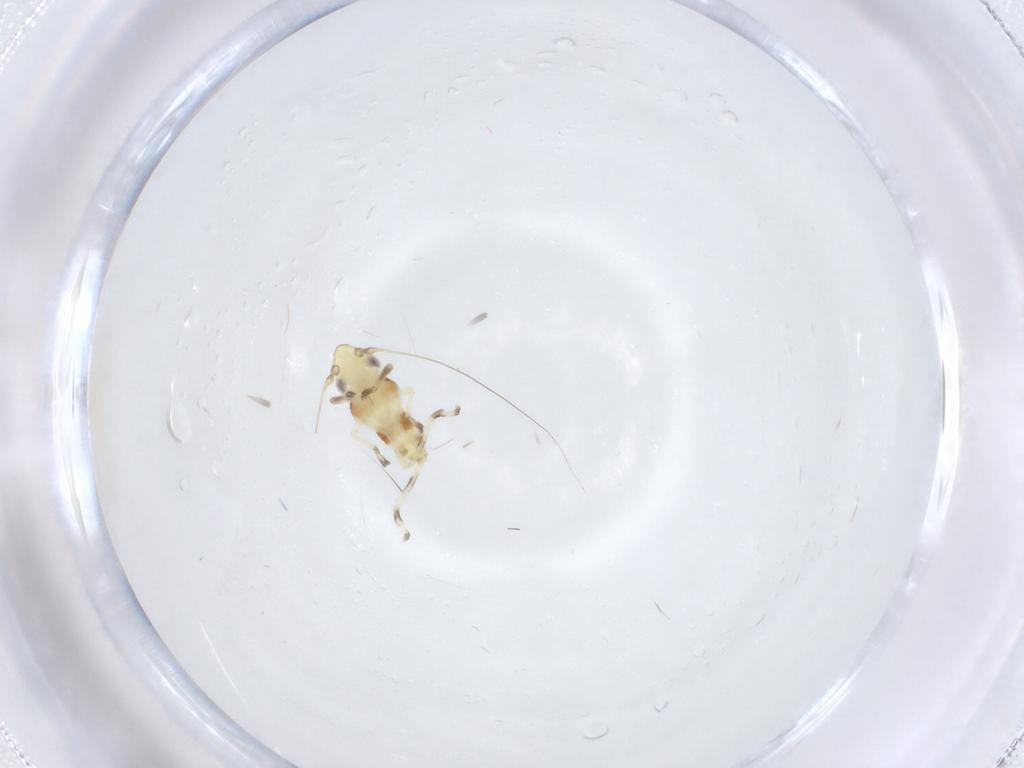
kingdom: Animalia
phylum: Arthropoda
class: Insecta
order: Hemiptera
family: Cicadellidae
